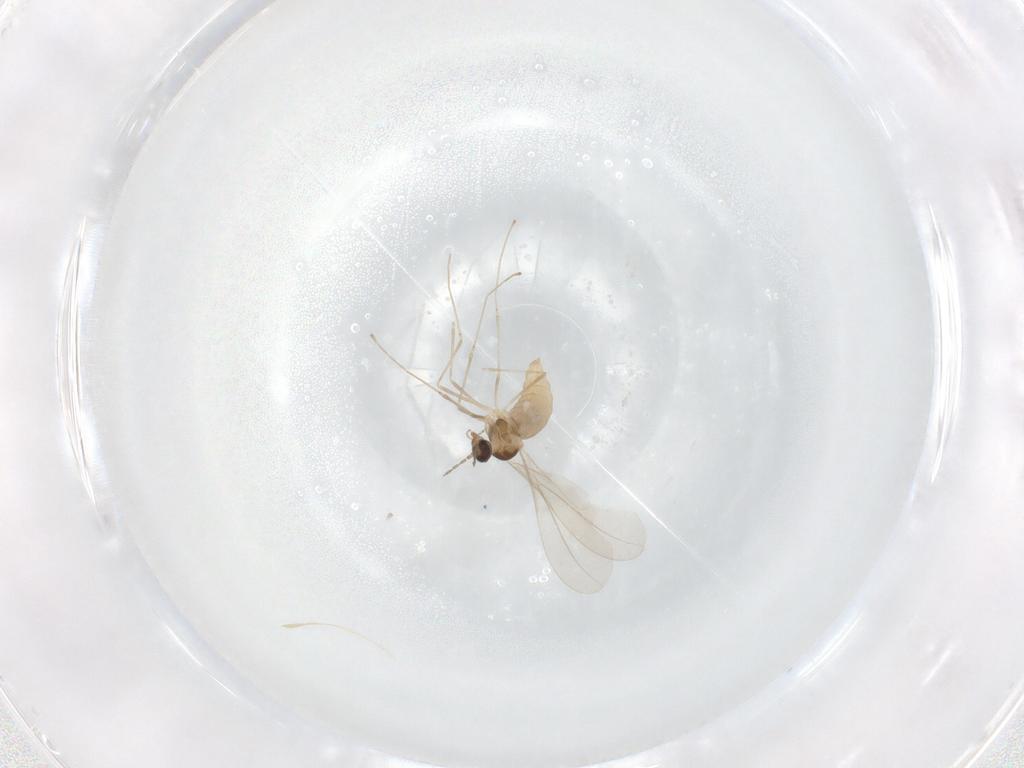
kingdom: Animalia
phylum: Arthropoda
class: Insecta
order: Diptera
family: Cecidomyiidae
